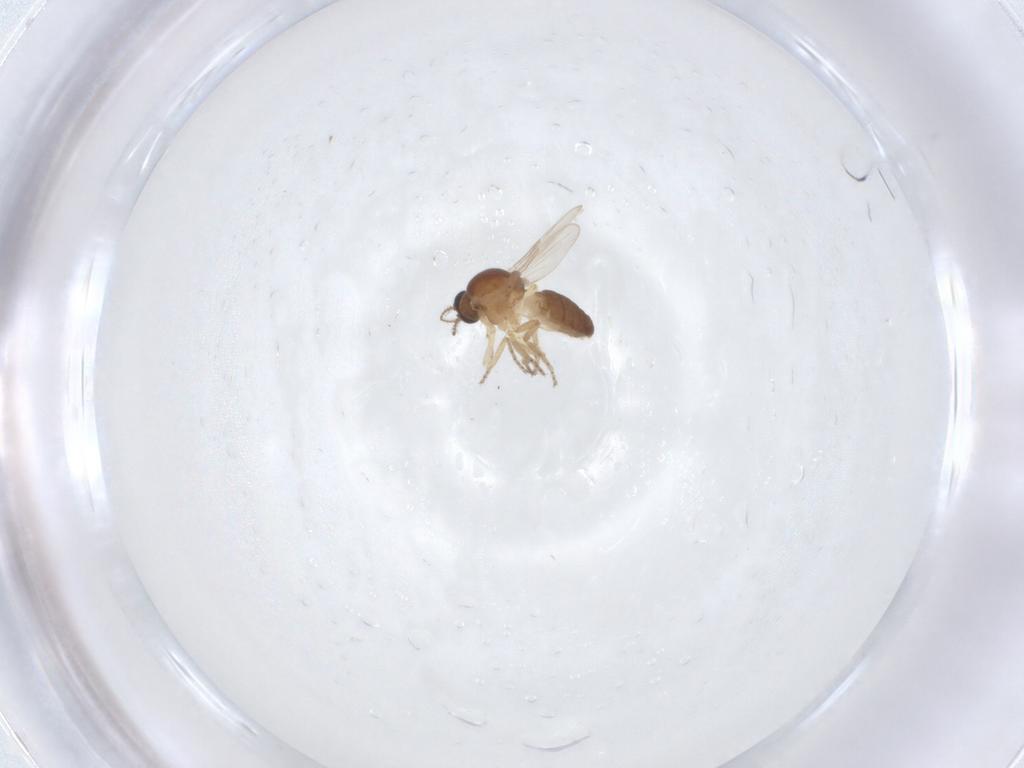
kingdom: Animalia
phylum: Arthropoda
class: Insecta
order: Diptera
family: Ceratopogonidae
